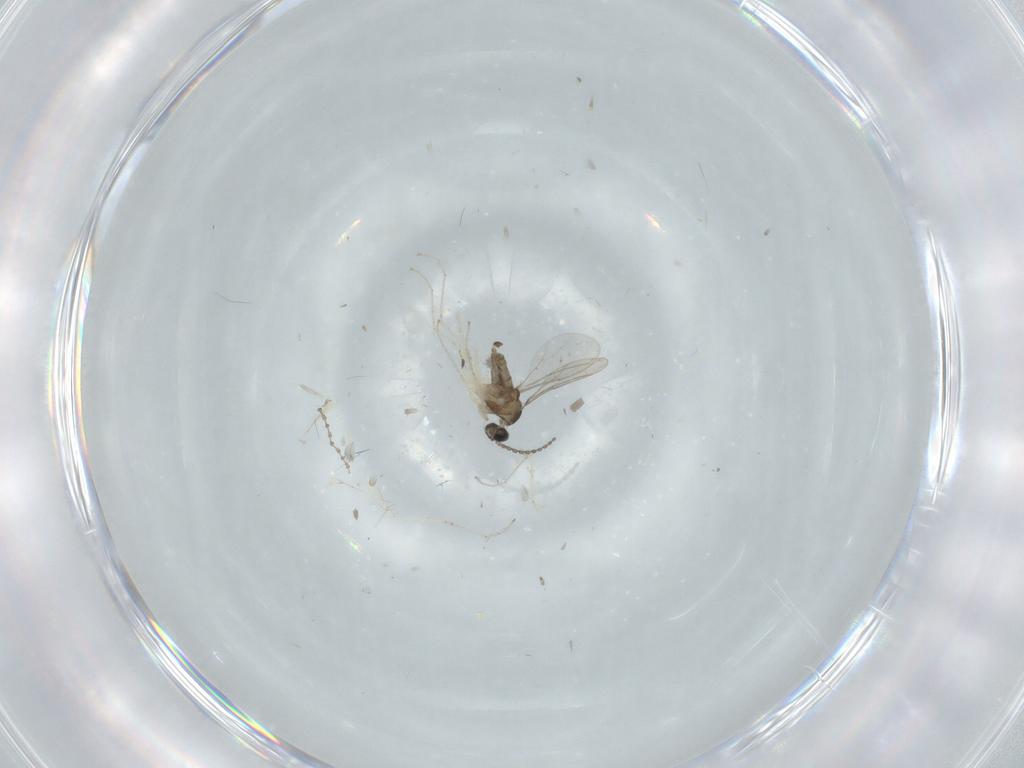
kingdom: Animalia
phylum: Arthropoda
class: Insecta
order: Diptera
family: Cecidomyiidae
